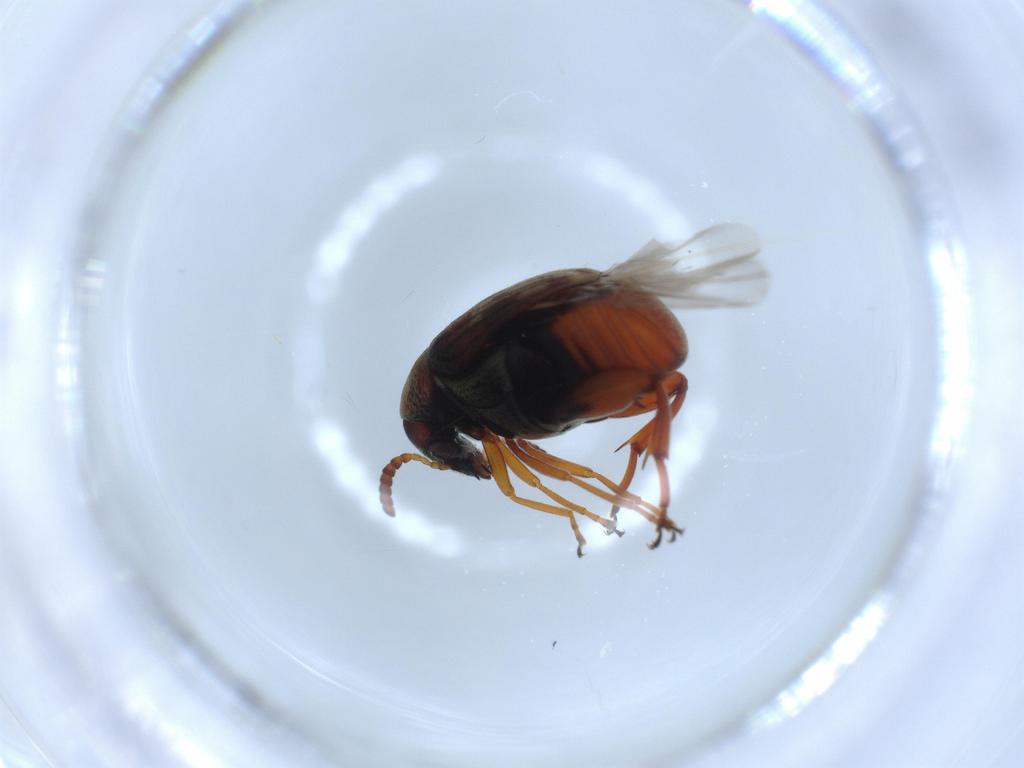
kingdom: Animalia
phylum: Arthropoda
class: Insecta
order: Coleoptera
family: Chrysomelidae
